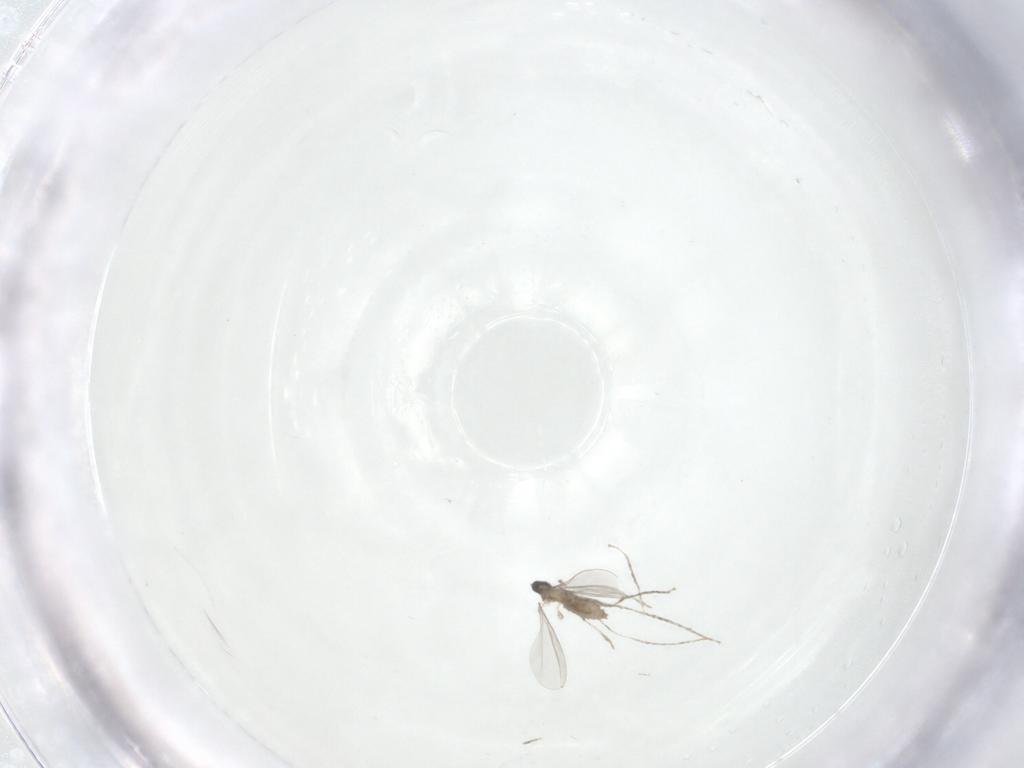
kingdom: Animalia
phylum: Arthropoda
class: Insecta
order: Diptera
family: Cecidomyiidae
